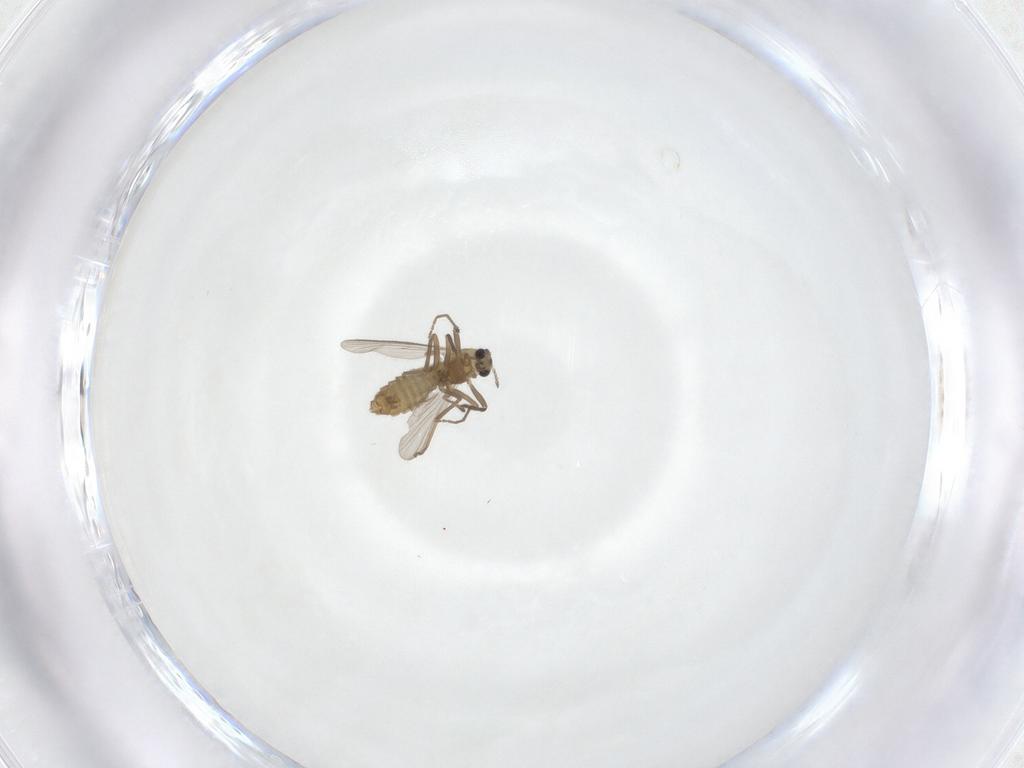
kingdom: Animalia
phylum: Arthropoda
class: Insecta
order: Diptera
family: Chironomidae
